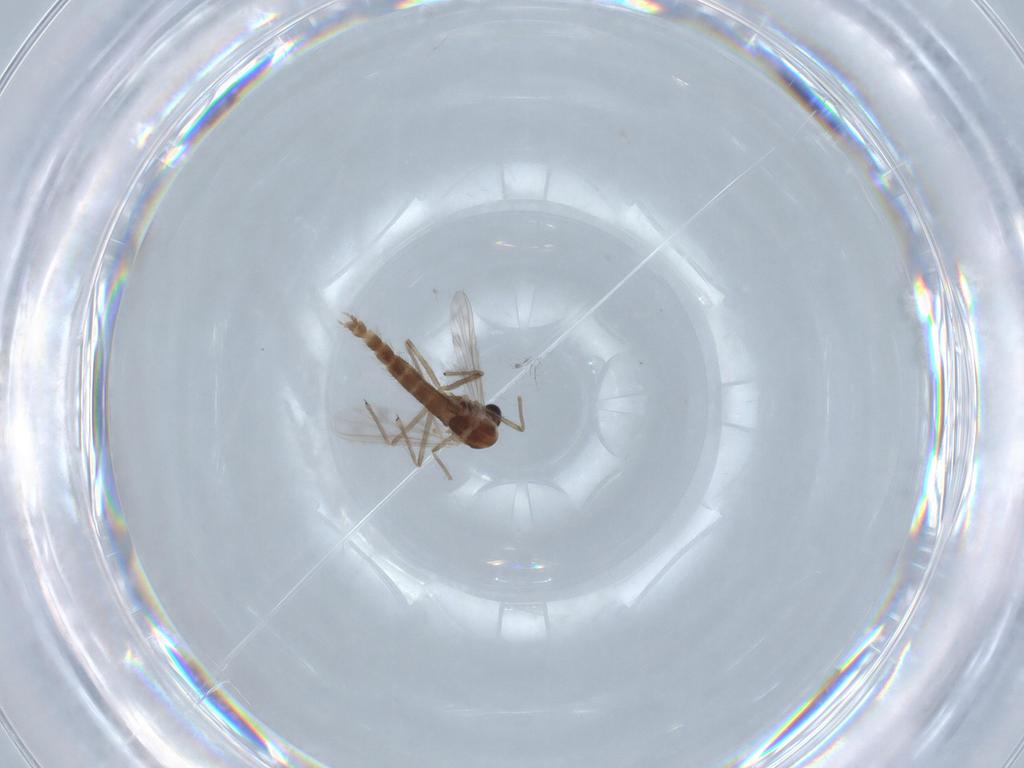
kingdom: Animalia
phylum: Arthropoda
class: Insecta
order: Diptera
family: Chironomidae
